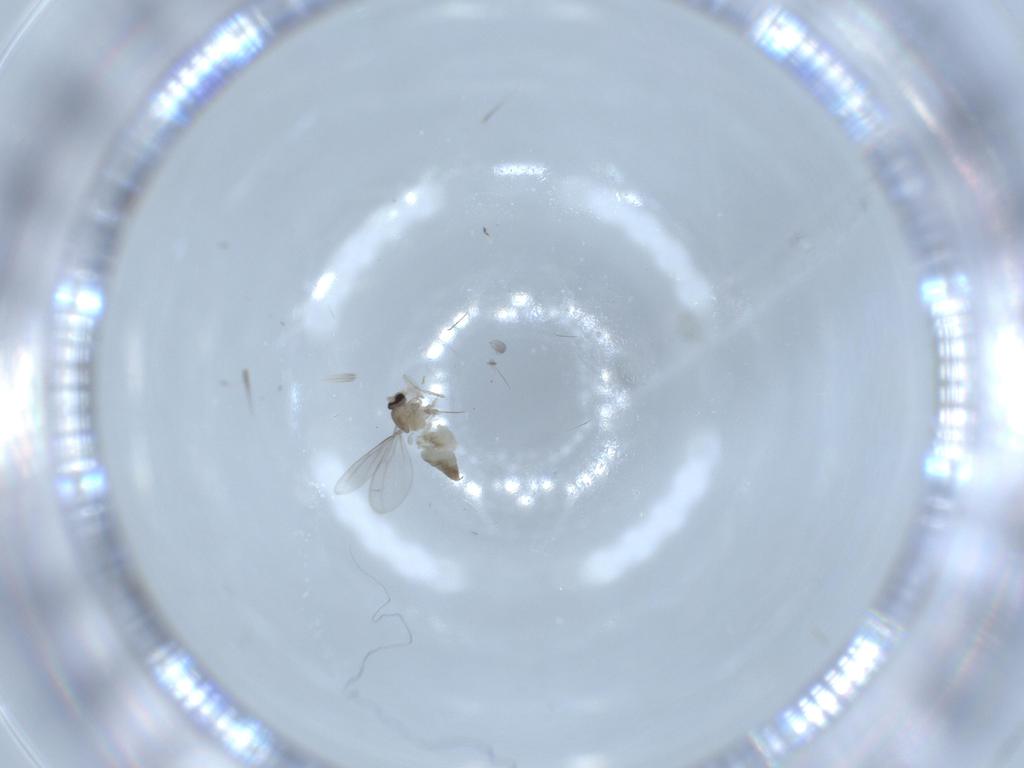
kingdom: Animalia
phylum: Arthropoda
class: Insecta
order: Diptera
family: Cecidomyiidae
